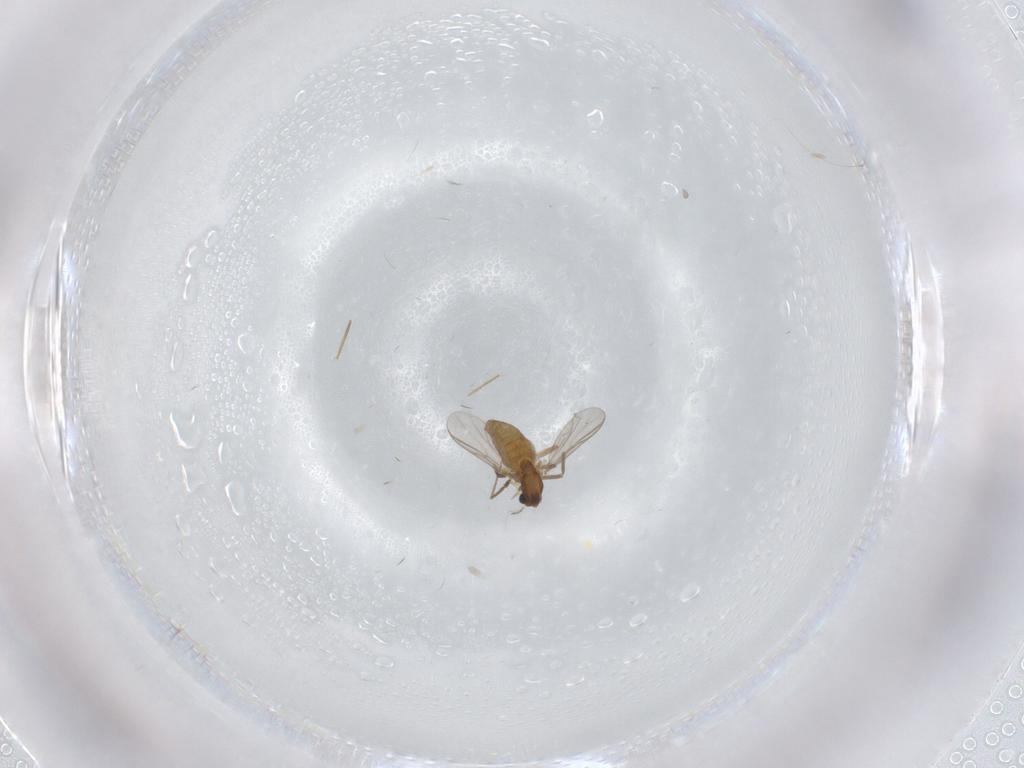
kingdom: Animalia
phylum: Arthropoda
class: Insecta
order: Diptera
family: Chironomidae
